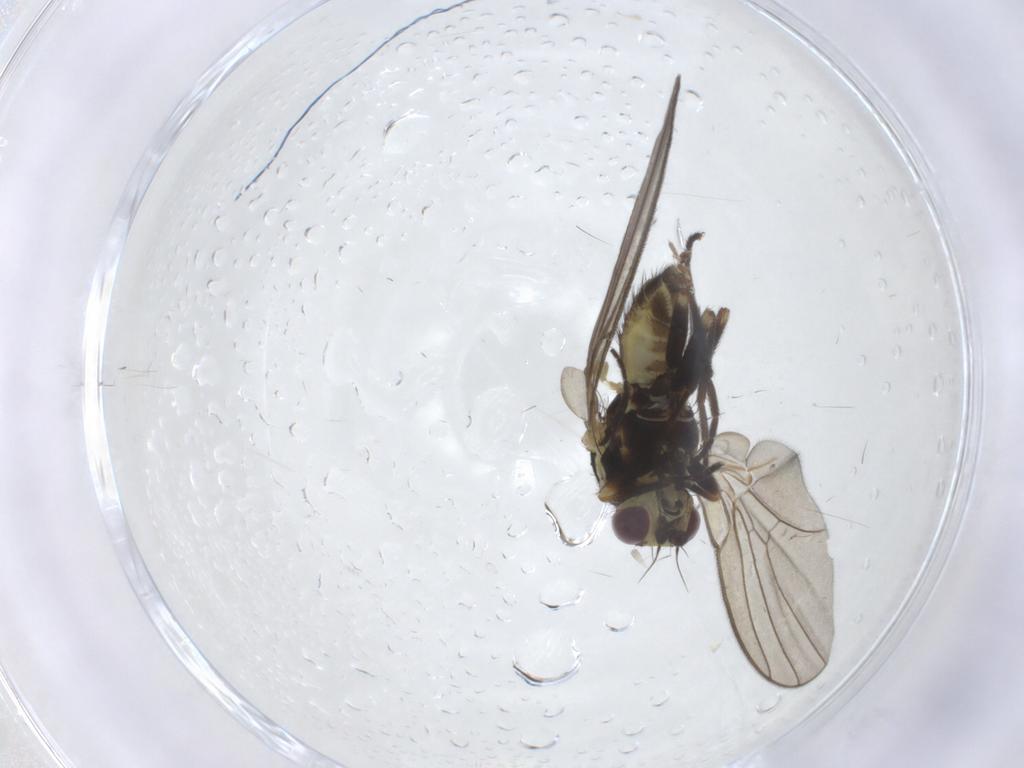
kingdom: Animalia
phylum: Arthropoda
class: Insecta
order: Diptera
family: Agromyzidae
